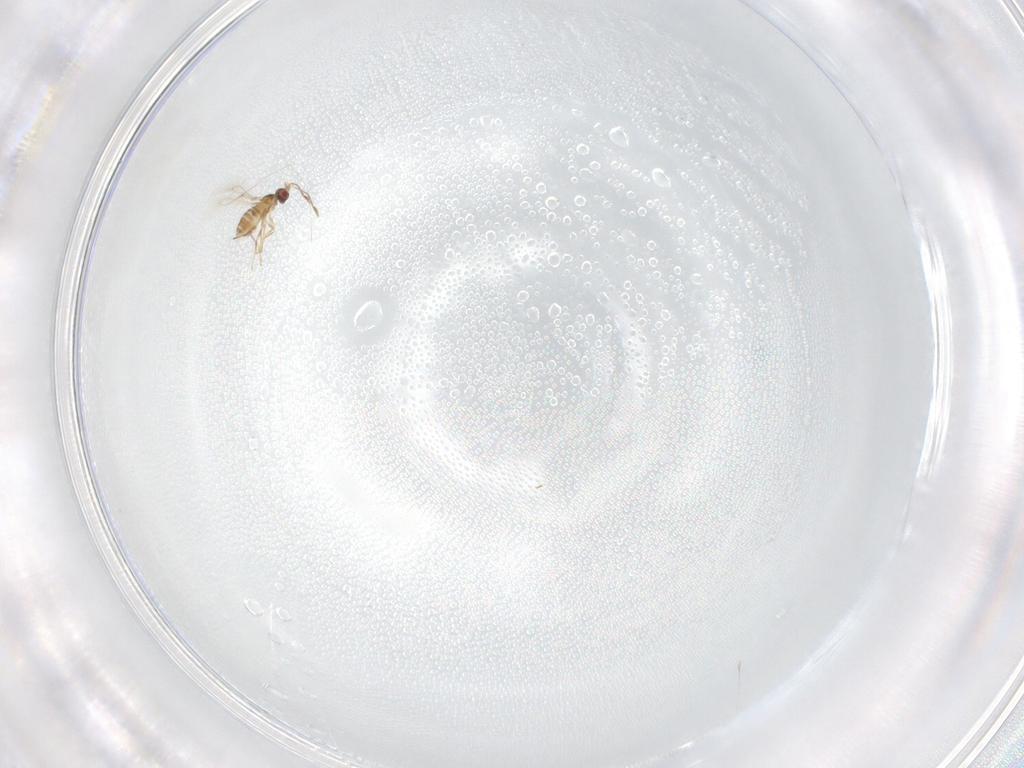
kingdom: Animalia
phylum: Arthropoda
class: Insecta
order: Hymenoptera
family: Mymaridae
